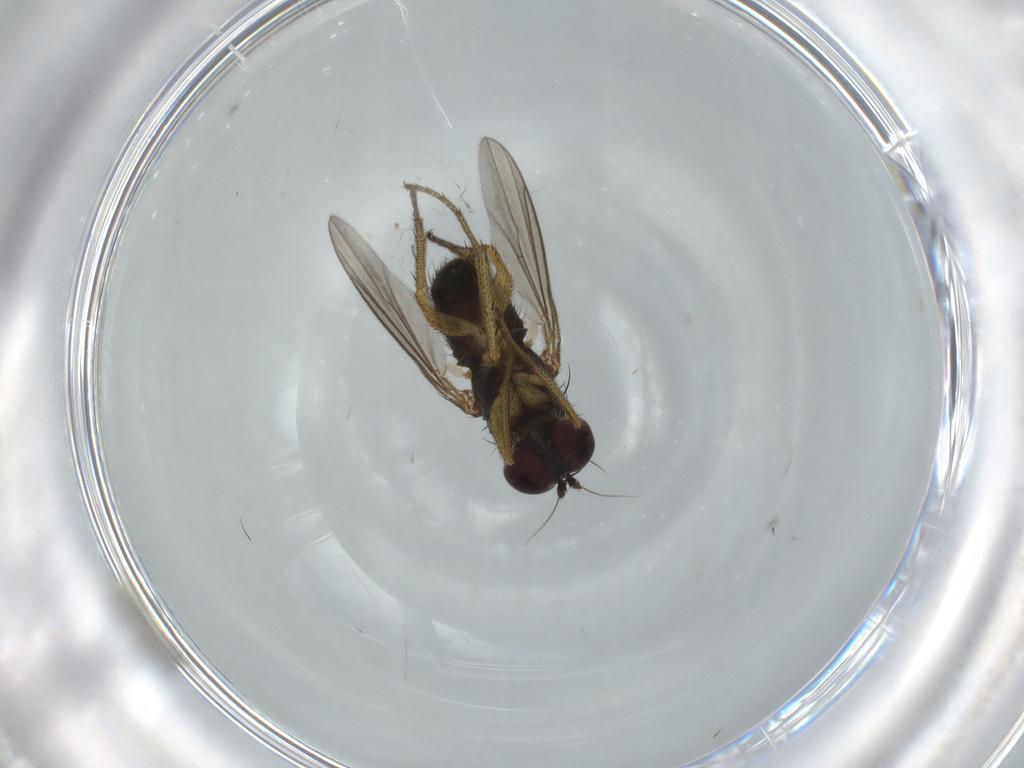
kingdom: Animalia
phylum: Arthropoda
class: Insecta
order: Diptera
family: Dolichopodidae
